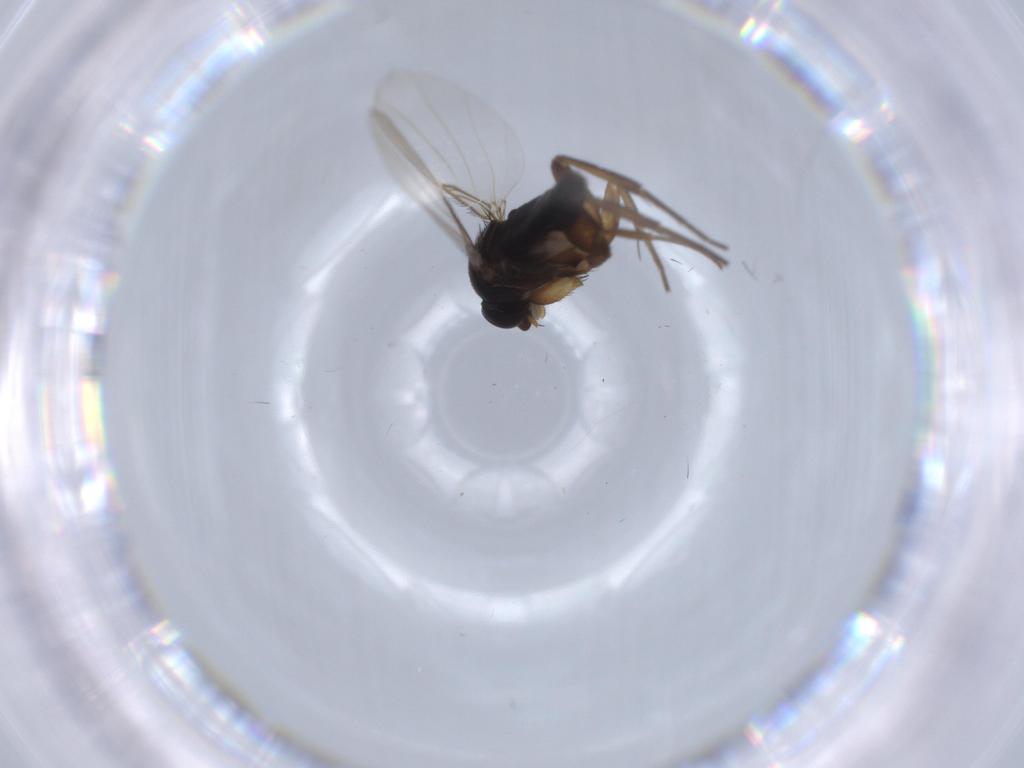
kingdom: Animalia
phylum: Arthropoda
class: Insecta
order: Diptera
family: Phoridae
